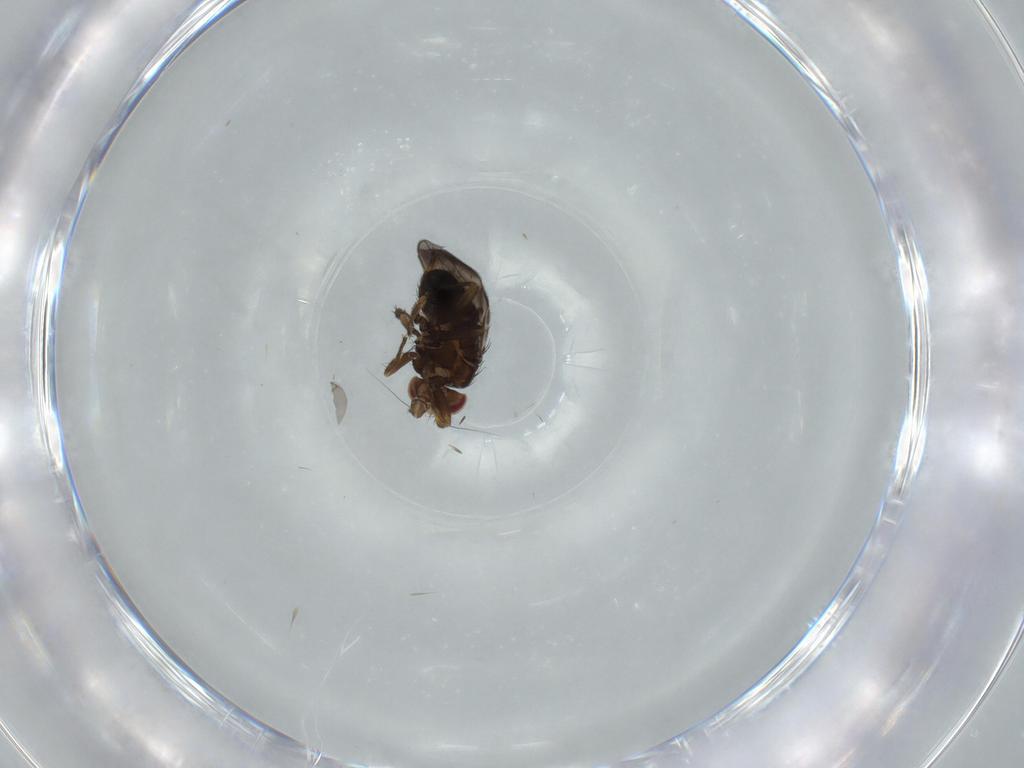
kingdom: Animalia
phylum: Arthropoda
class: Insecta
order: Diptera
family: Sphaeroceridae
